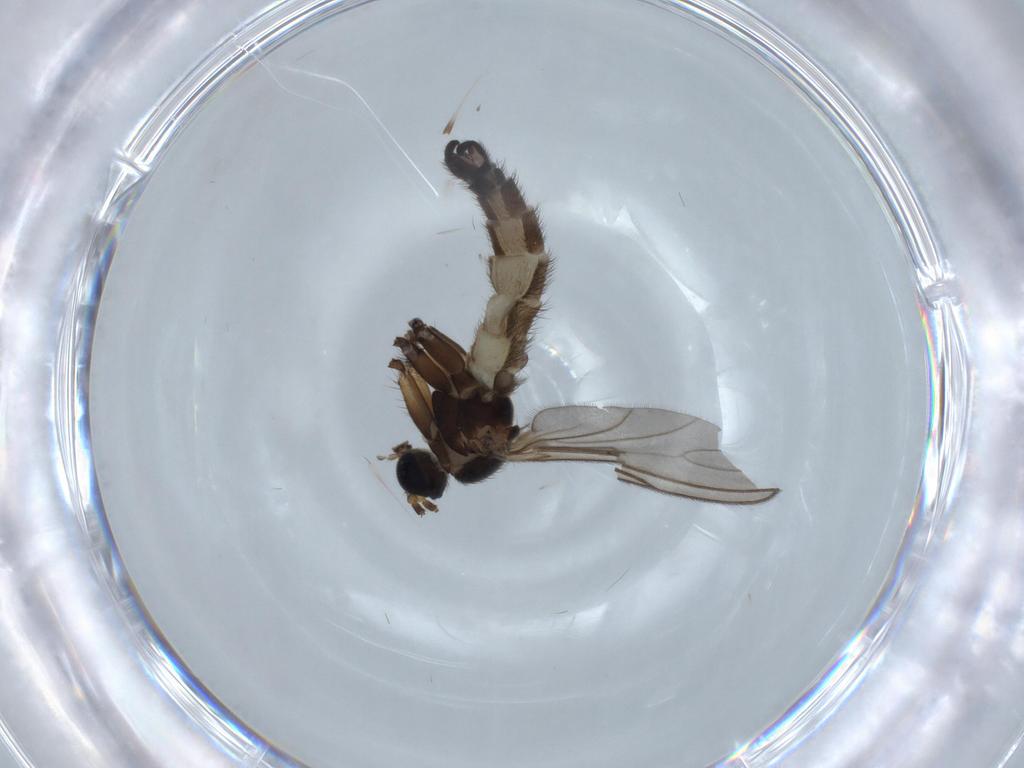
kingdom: Animalia
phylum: Arthropoda
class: Insecta
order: Diptera
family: Sciaridae
